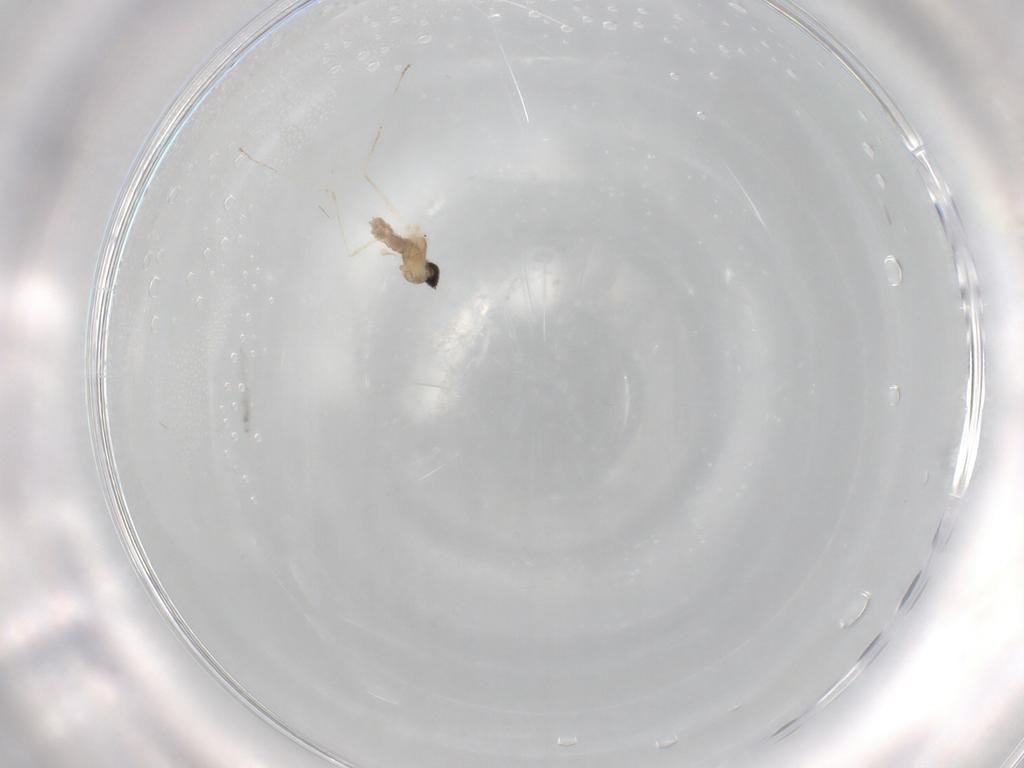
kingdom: Animalia
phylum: Arthropoda
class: Insecta
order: Diptera
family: Cecidomyiidae
